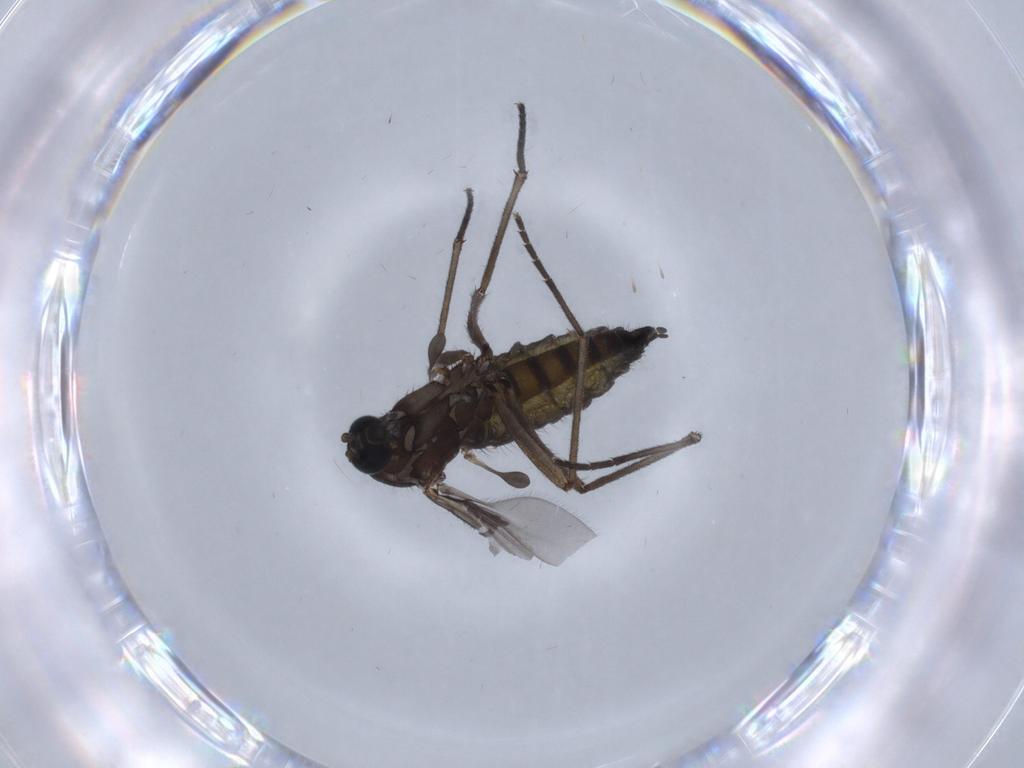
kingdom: Animalia
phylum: Arthropoda
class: Insecta
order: Diptera
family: Sciaridae
